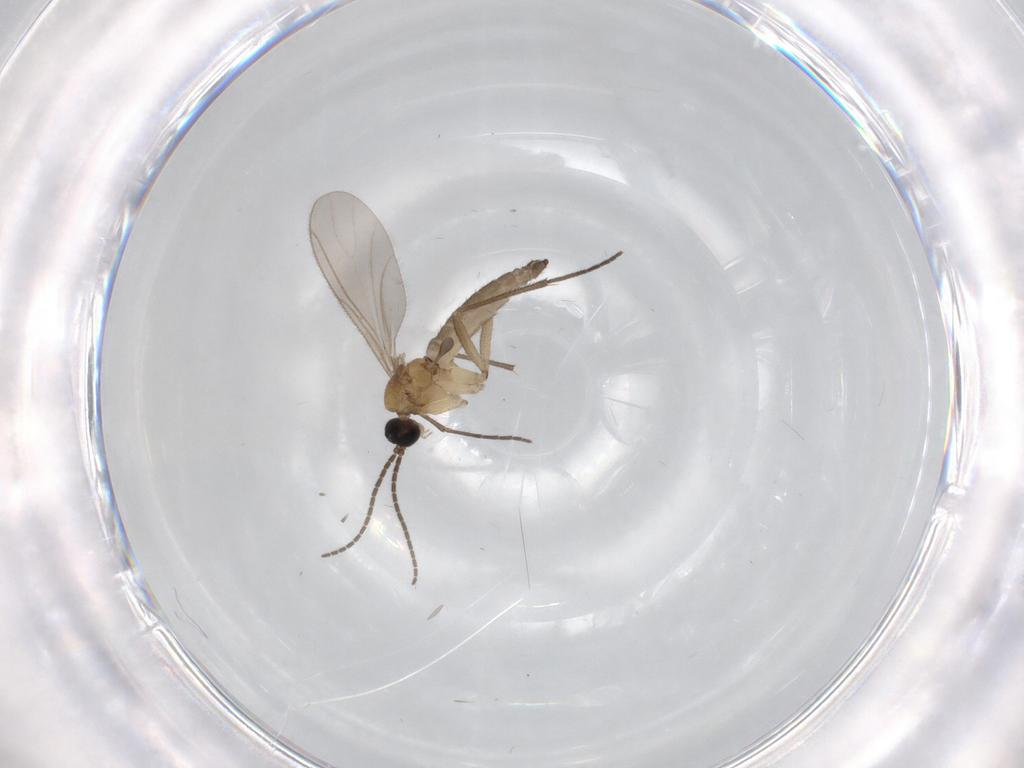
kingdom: Animalia
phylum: Arthropoda
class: Insecta
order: Diptera
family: Sciaridae
